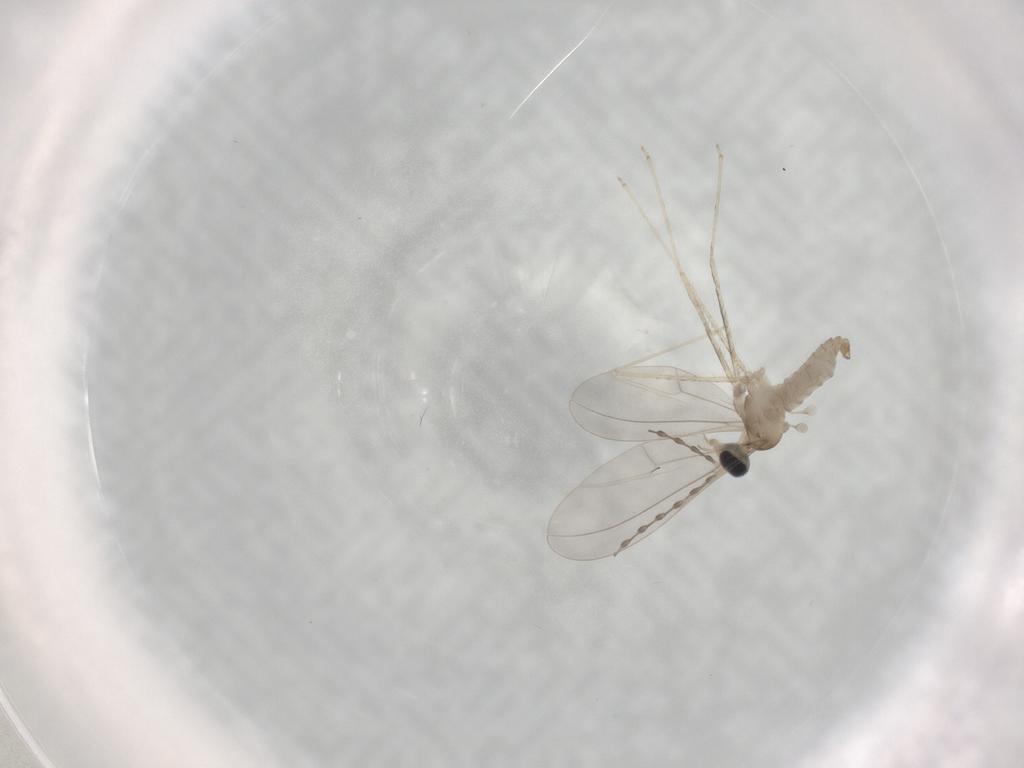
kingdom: Animalia
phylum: Arthropoda
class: Insecta
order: Diptera
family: Cecidomyiidae
